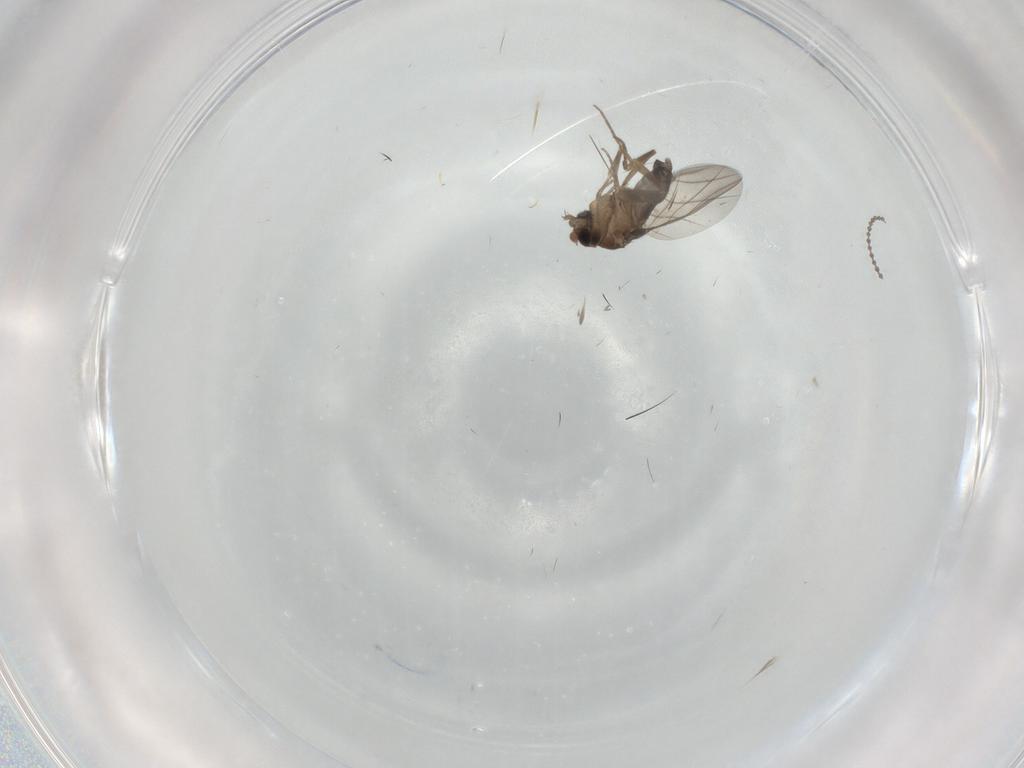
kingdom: Animalia
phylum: Arthropoda
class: Insecta
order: Diptera
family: Phoridae
